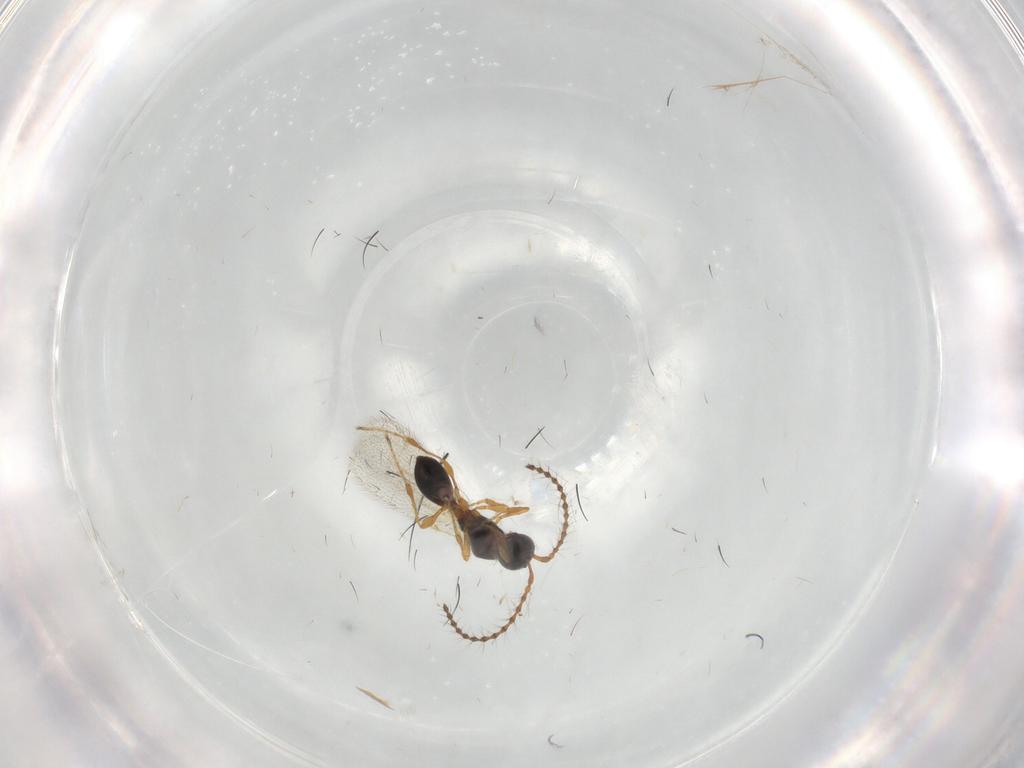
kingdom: Animalia
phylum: Arthropoda
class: Insecta
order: Hymenoptera
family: Diapriidae
